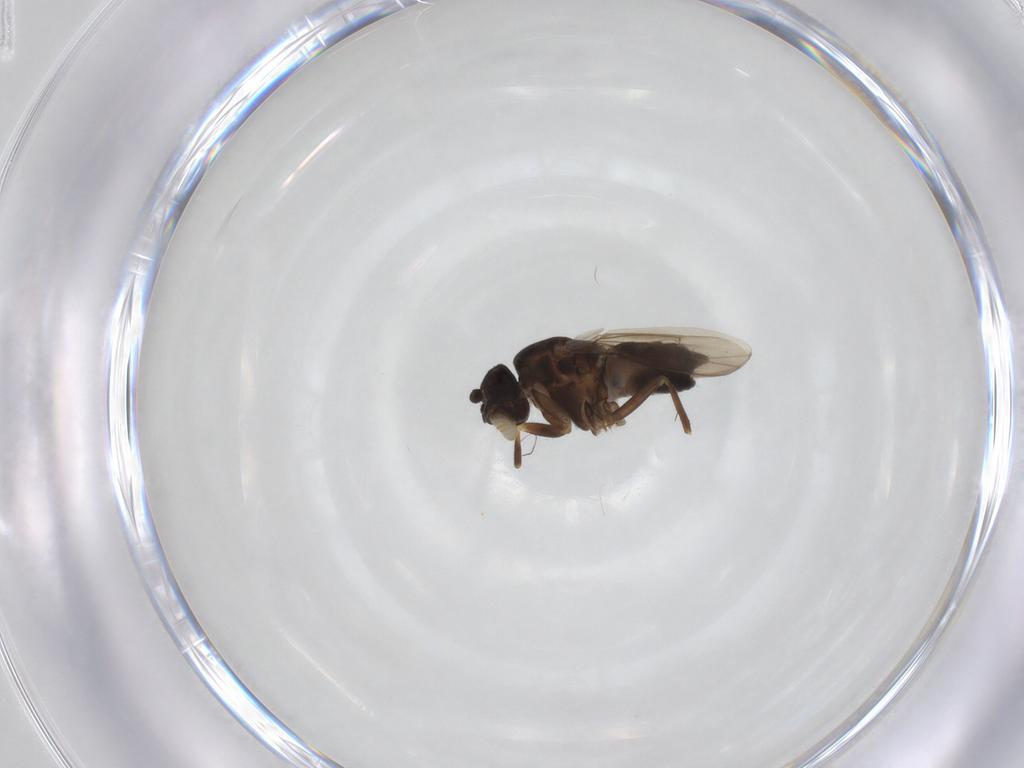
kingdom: Animalia
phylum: Arthropoda
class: Insecta
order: Diptera
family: Sphaeroceridae
